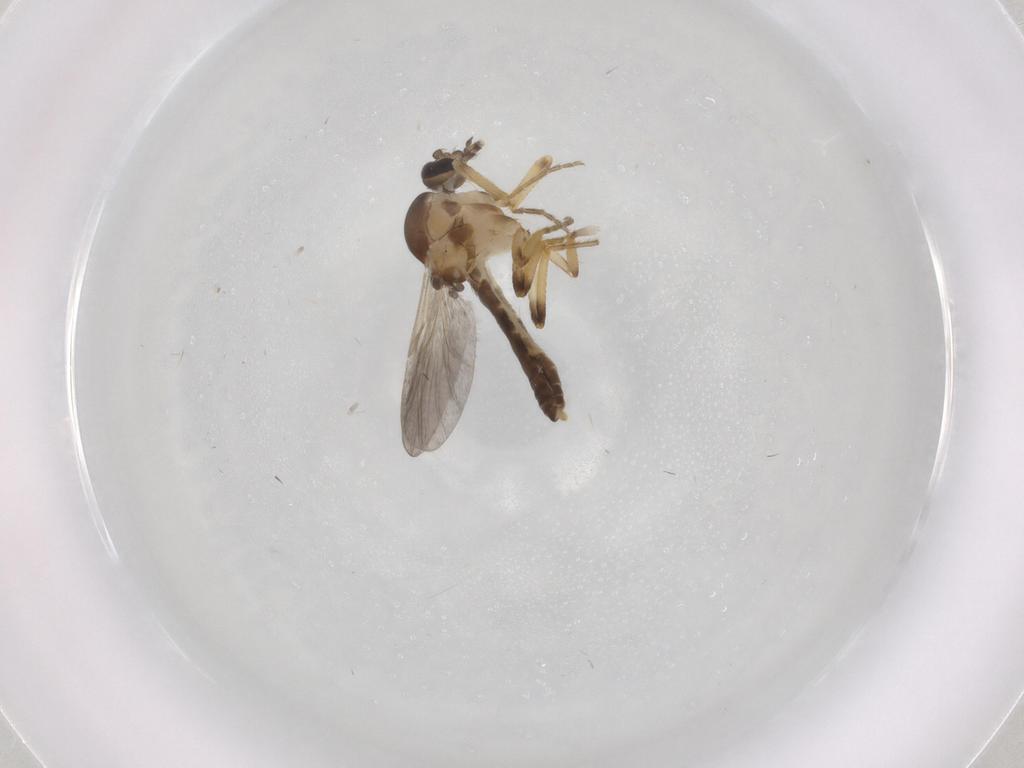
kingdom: Animalia
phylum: Arthropoda
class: Insecta
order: Diptera
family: Ceratopogonidae
